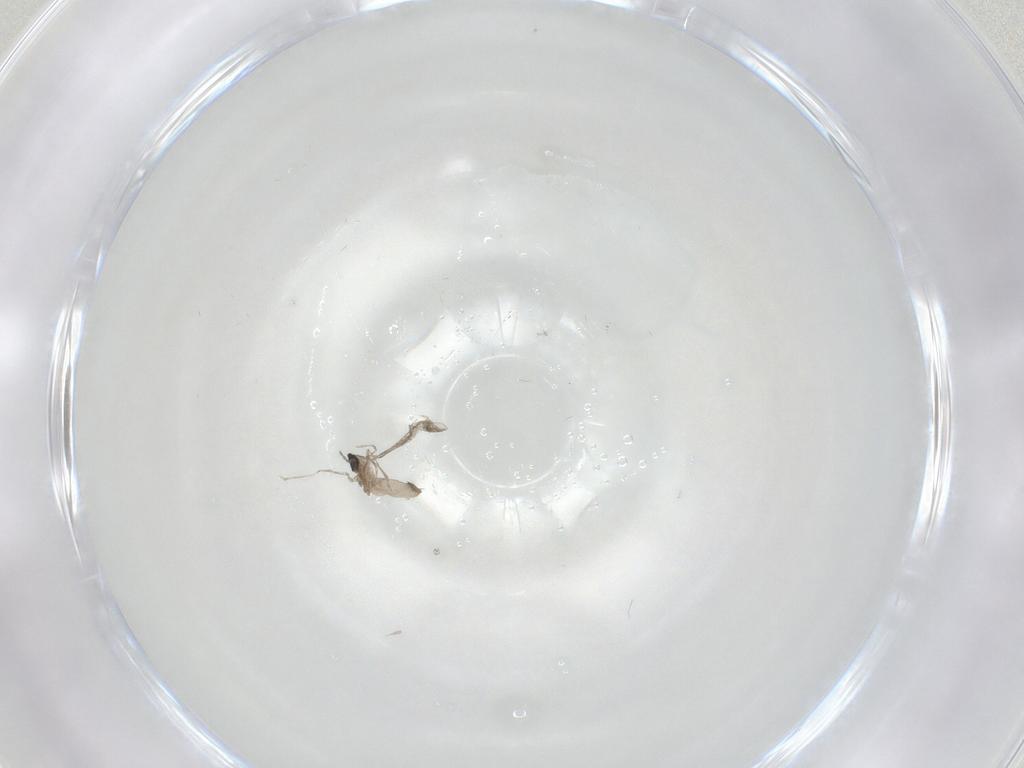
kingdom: Animalia
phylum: Arthropoda
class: Insecta
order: Diptera
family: Cecidomyiidae
